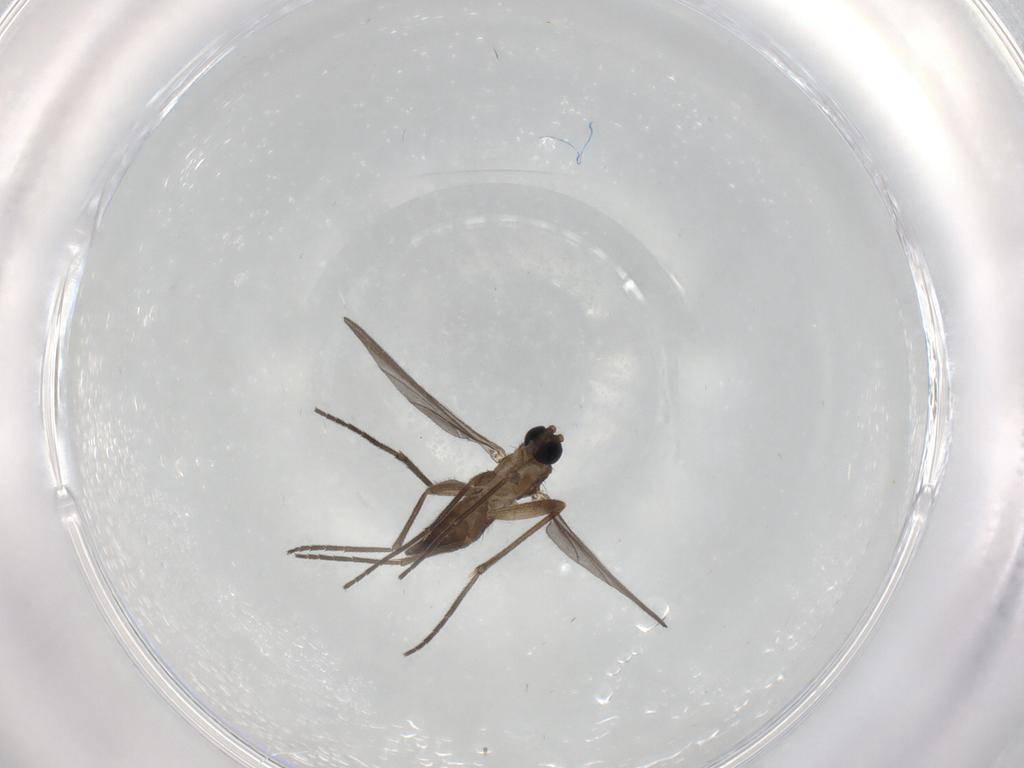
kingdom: Animalia
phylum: Arthropoda
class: Insecta
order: Diptera
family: Sciaridae
